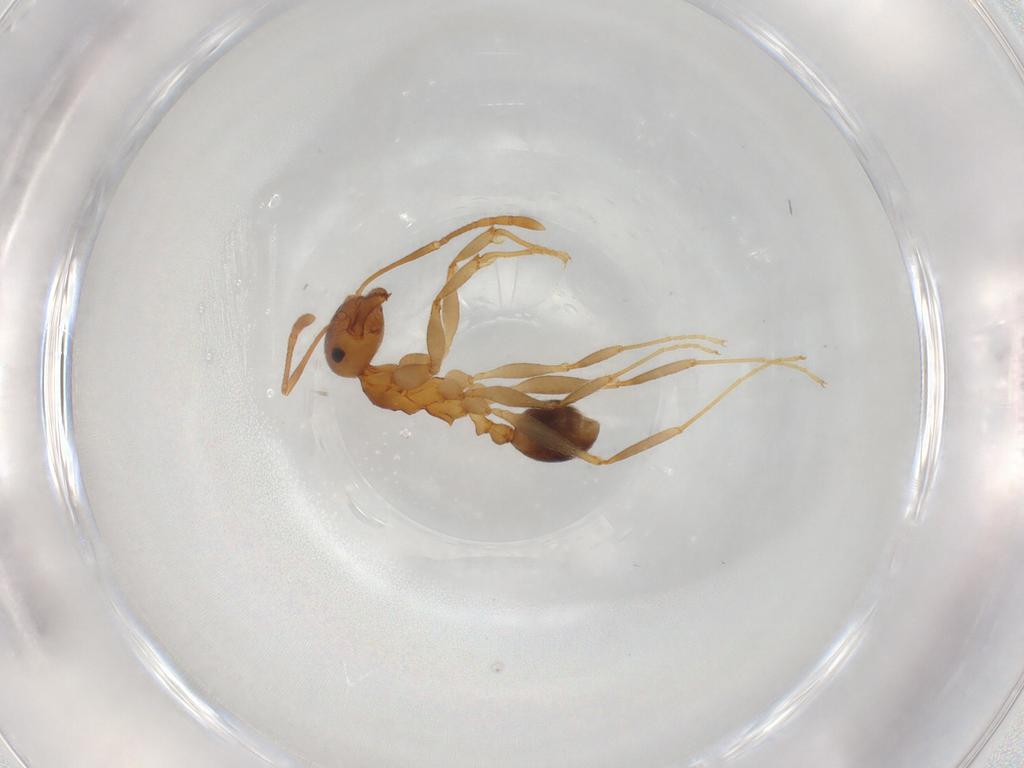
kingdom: Animalia
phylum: Arthropoda
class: Insecta
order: Hymenoptera
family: Formicidae
